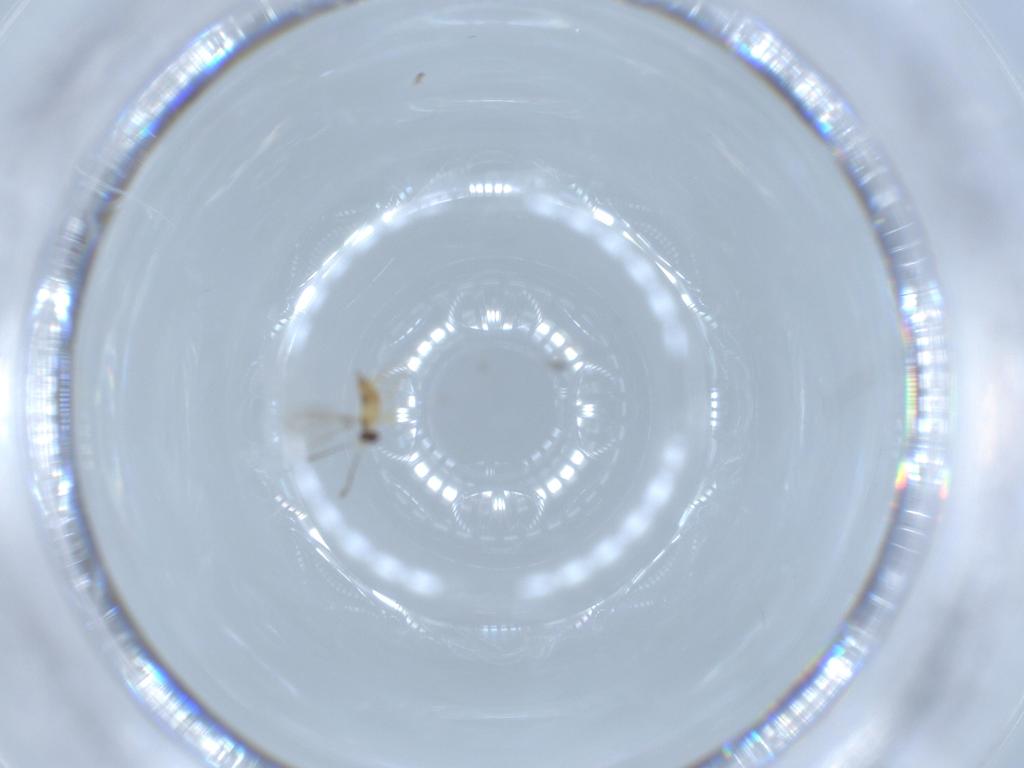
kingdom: Animalia
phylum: Arthropoda
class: Insecta
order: Hymenoptera
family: Mymaridae
